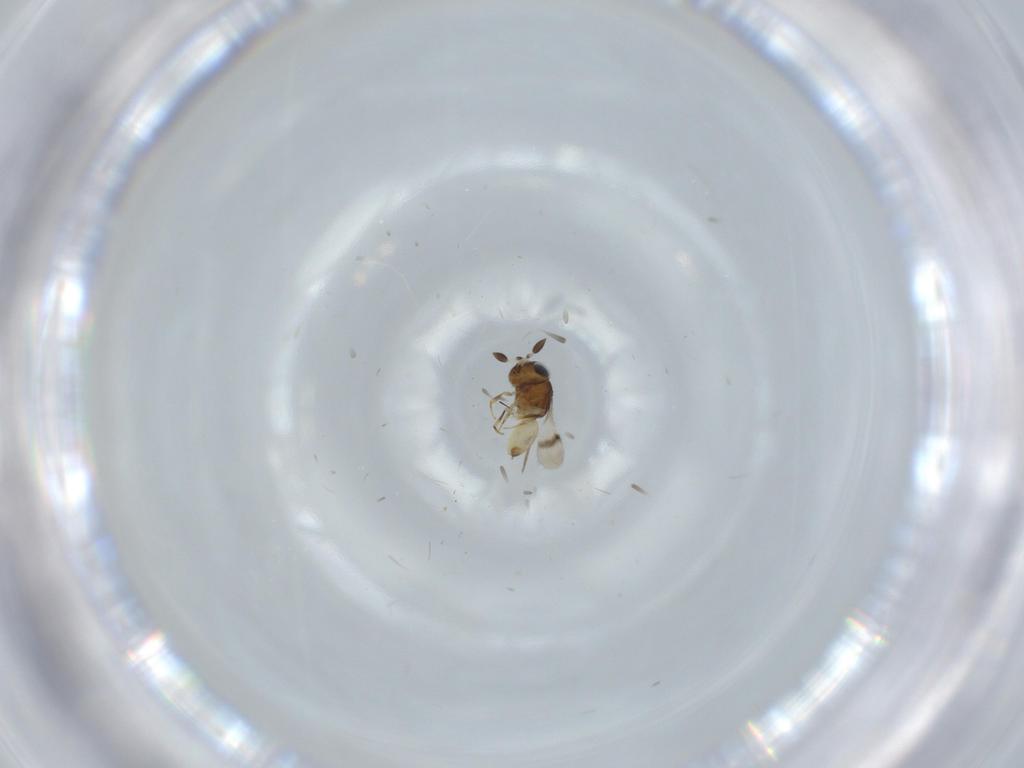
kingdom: Animalia
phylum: Arthropoda
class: Arachnida
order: Araneae
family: Pholcidae
